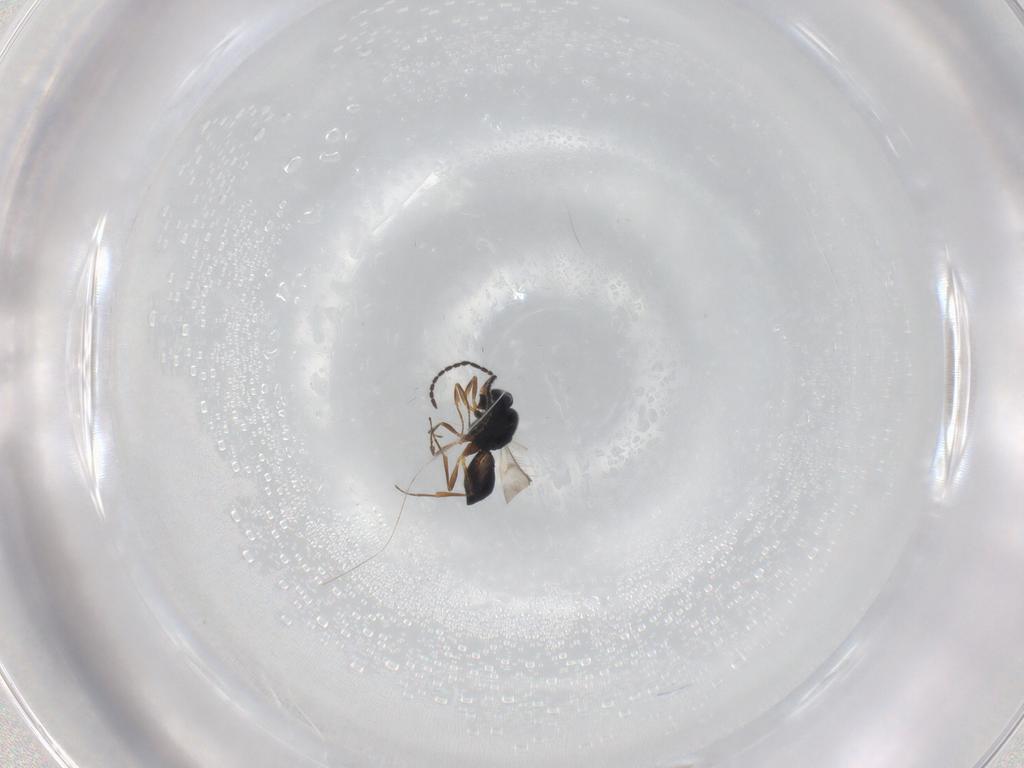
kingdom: Animalia
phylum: Arthropoda
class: Insecta
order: Hymenoptera
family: Scelionidae
